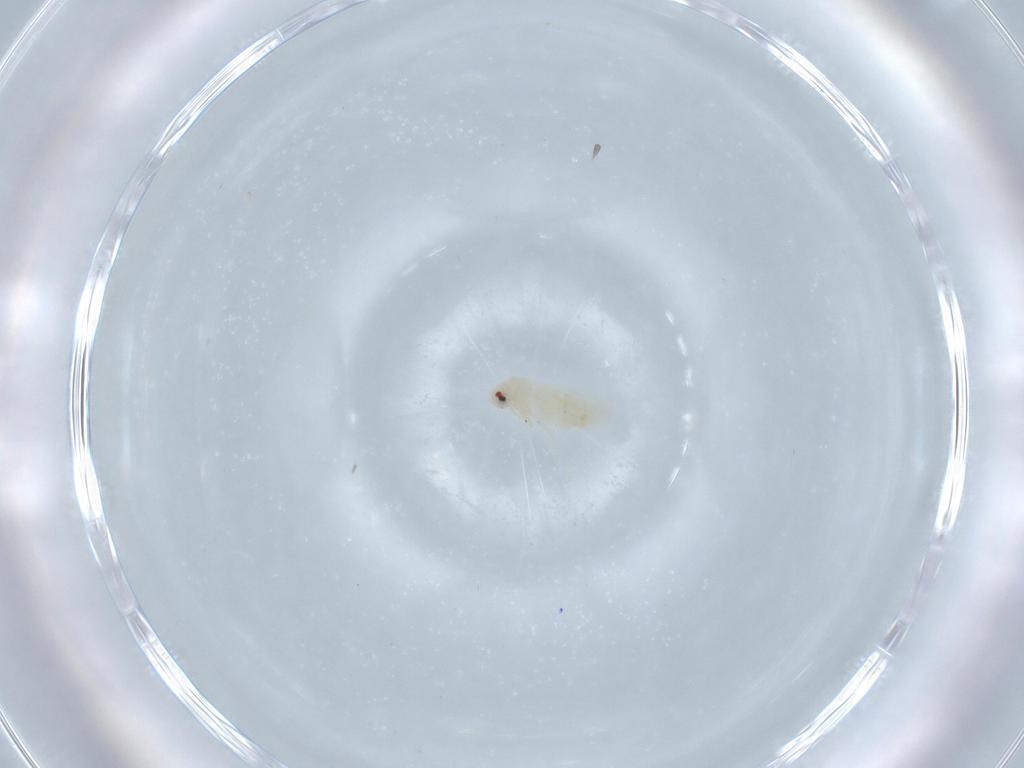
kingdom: Animalia
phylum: Arthropoda
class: Insecta
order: Hemiptera
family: Aleyrodidae
